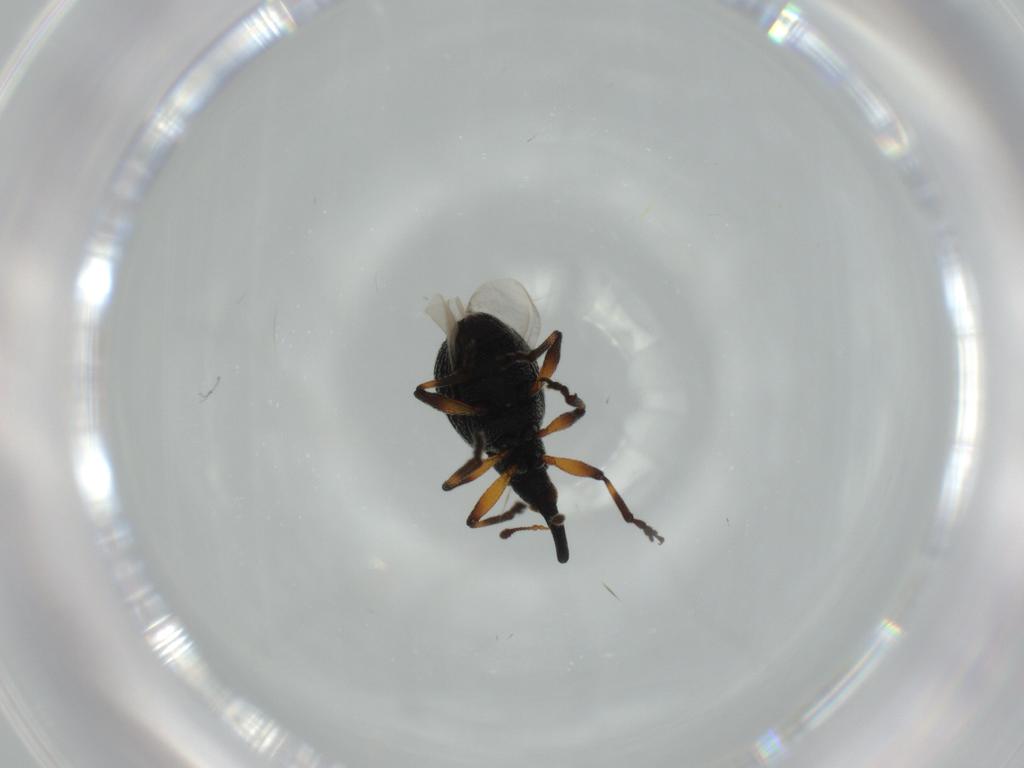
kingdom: Animalia
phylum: Arthropoda
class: Insecta
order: Coleoptera
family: Brentidae
